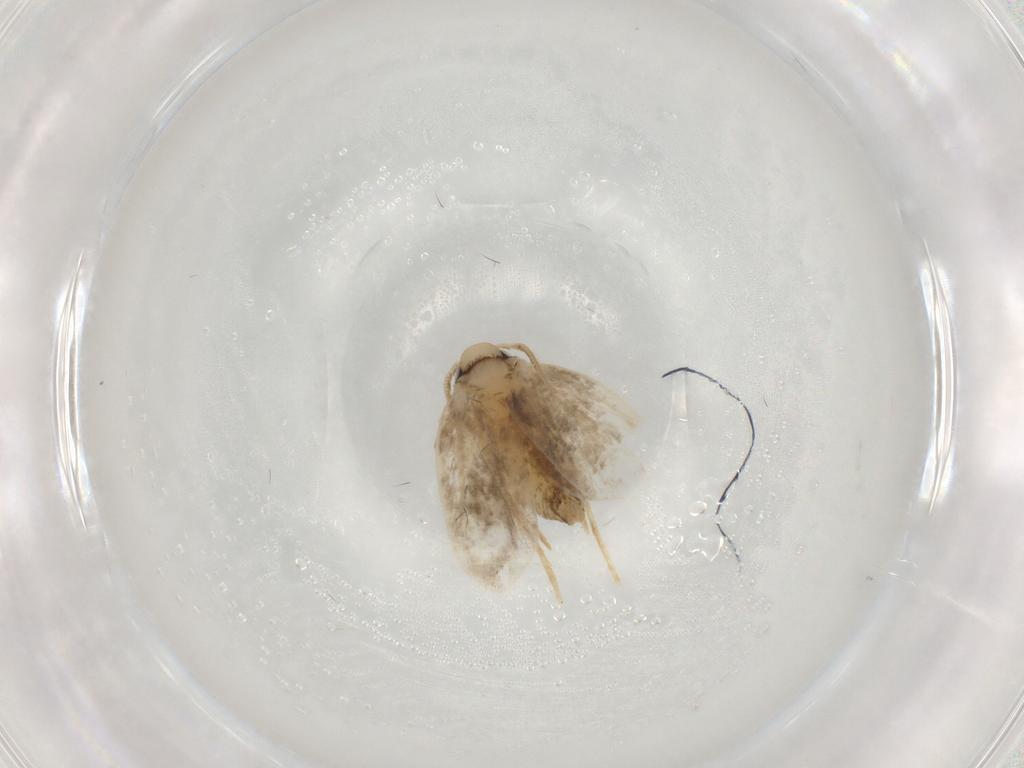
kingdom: Animalia
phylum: Arthropoda
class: Insecta
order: Lepidoptera
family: Psychidae
